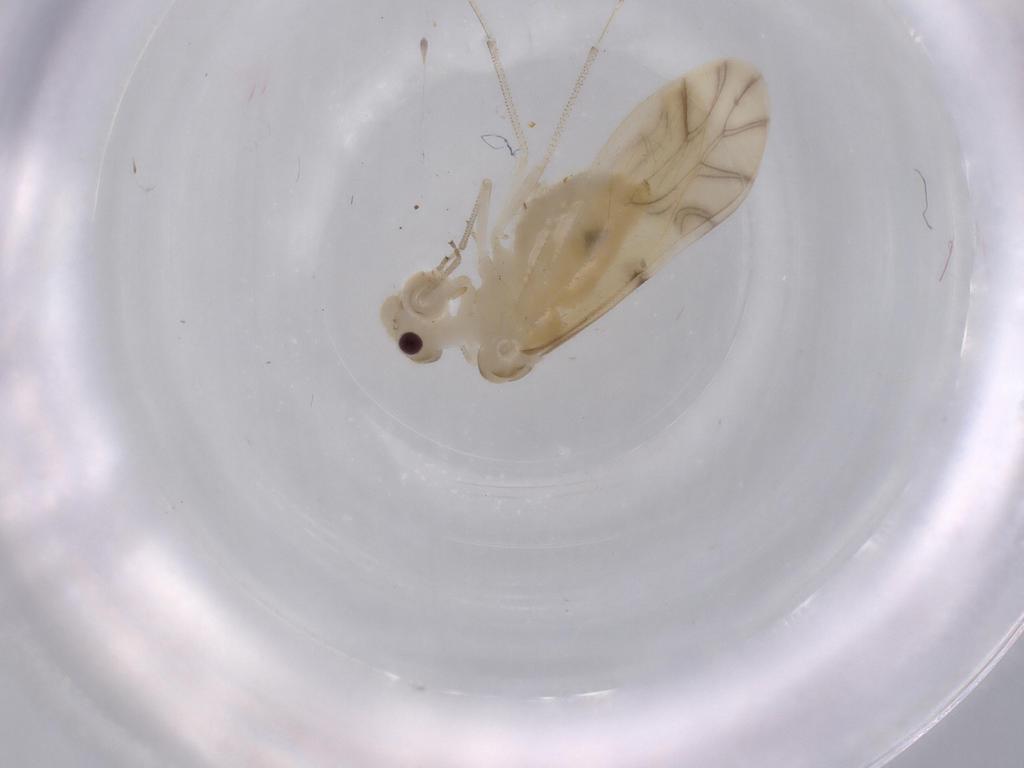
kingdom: Animalia
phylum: Arthropoda
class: Insecta
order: Psocodea
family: Caeciliusidae
